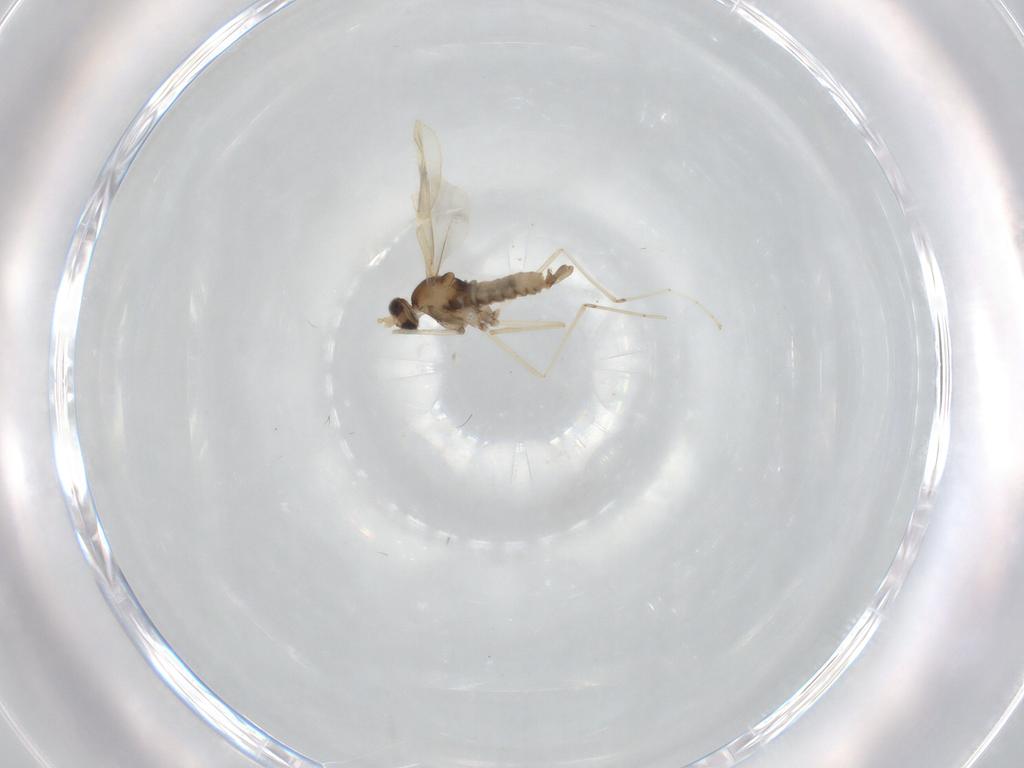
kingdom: Animalia
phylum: Arthropoda
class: Insecta
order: Diptera
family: Cecidomyiidae
